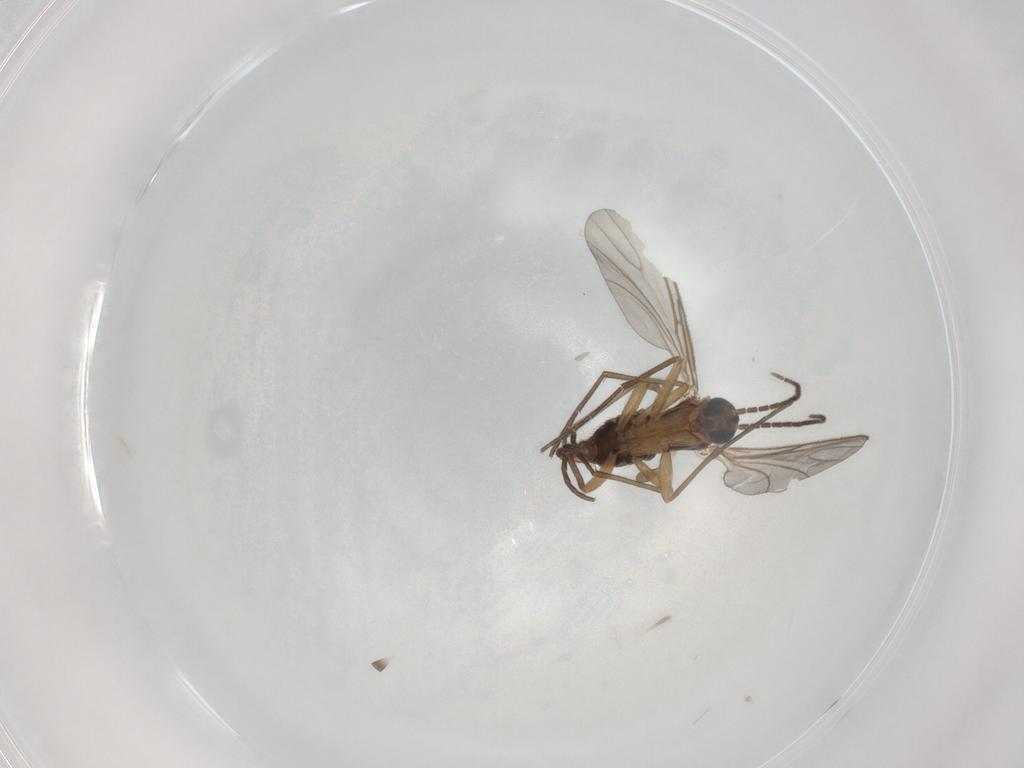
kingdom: Animalia
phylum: Arthropoda
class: Insecta
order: Diptera
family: Sciaridae
